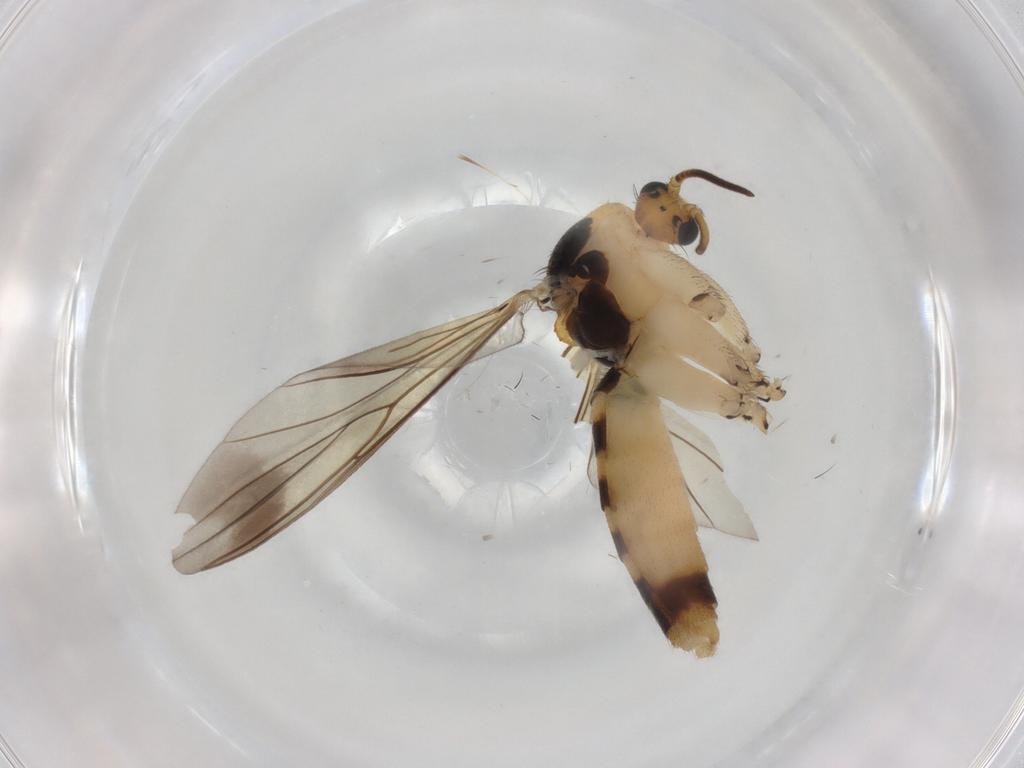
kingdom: Animalia
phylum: Arthropoda
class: Insecta
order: Diptera
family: Mycetophilidae
